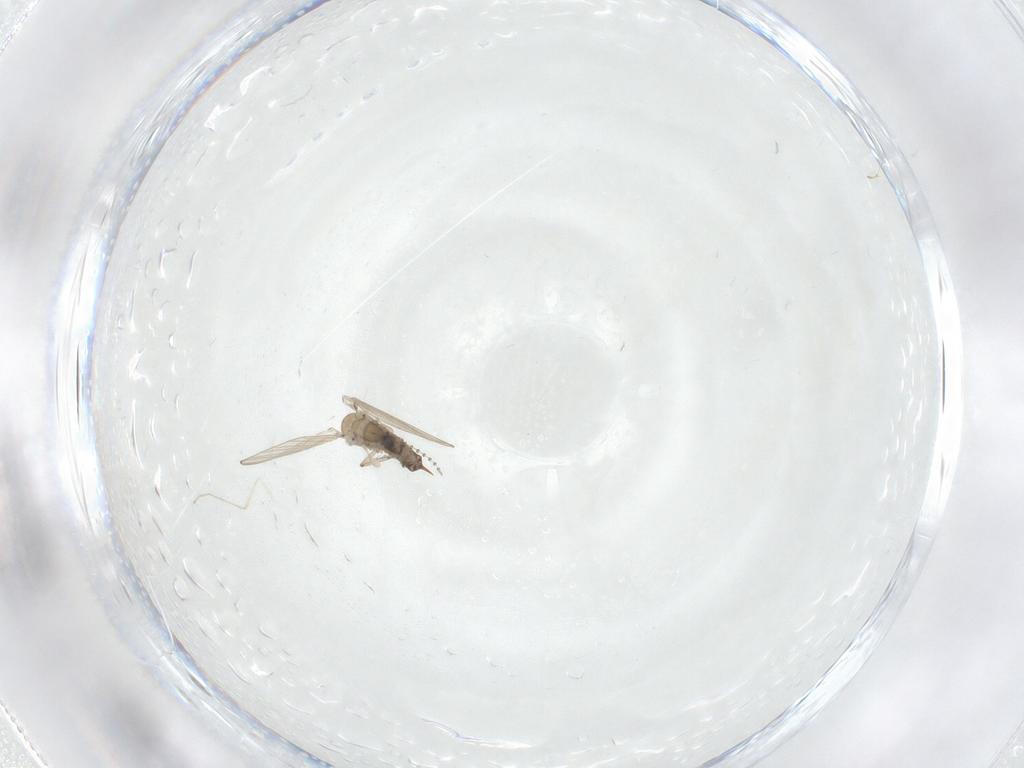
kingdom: Animalia
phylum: Arthropoda
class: Insecta
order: Diptera
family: Psychodidae
